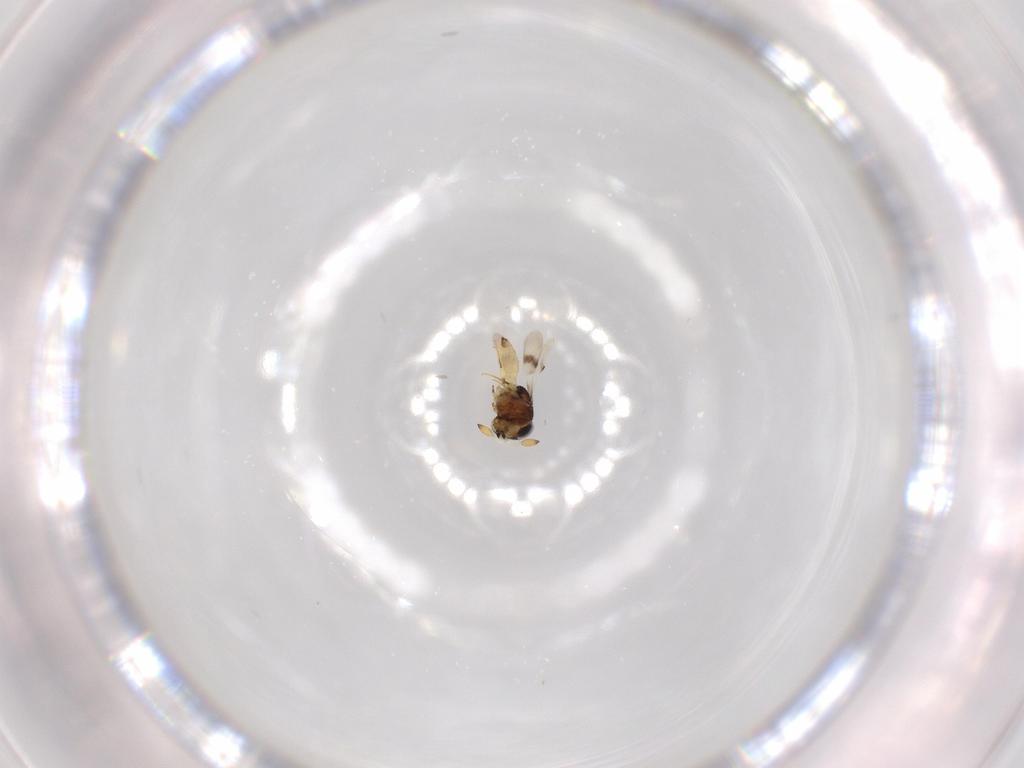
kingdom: Animalia
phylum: Arthropoda
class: Insecta
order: Hymenoptera
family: Scelionidae
